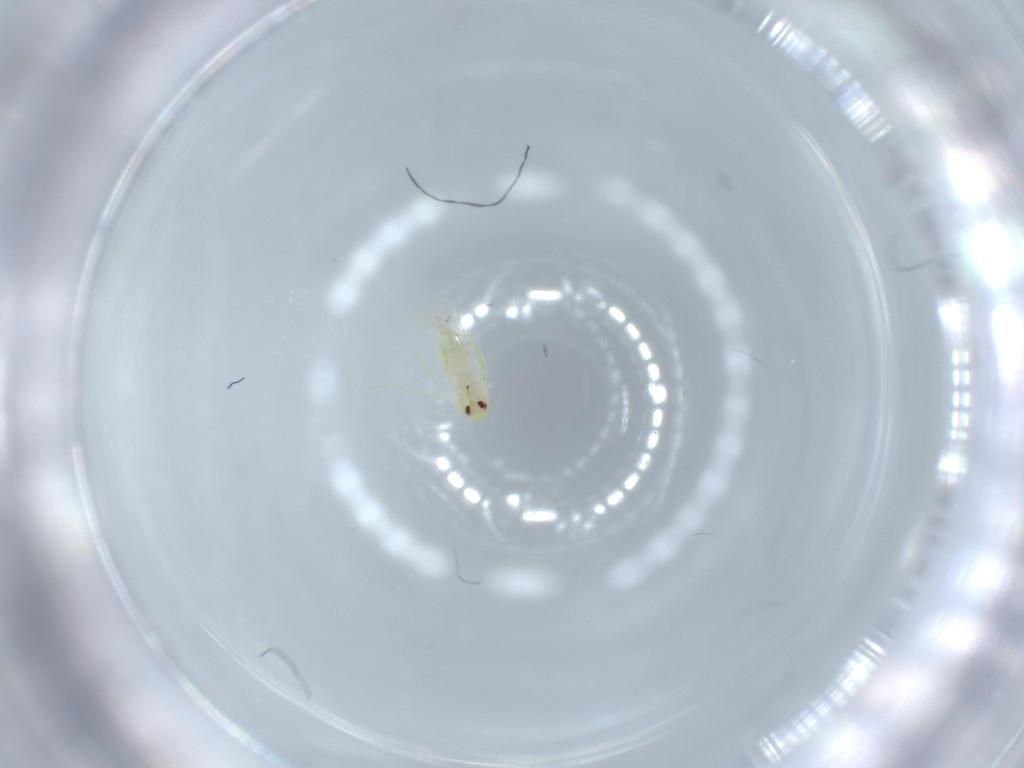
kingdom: Animalia
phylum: Arthropoda
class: Insecta
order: Hemiptera
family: Aleyrodidae
